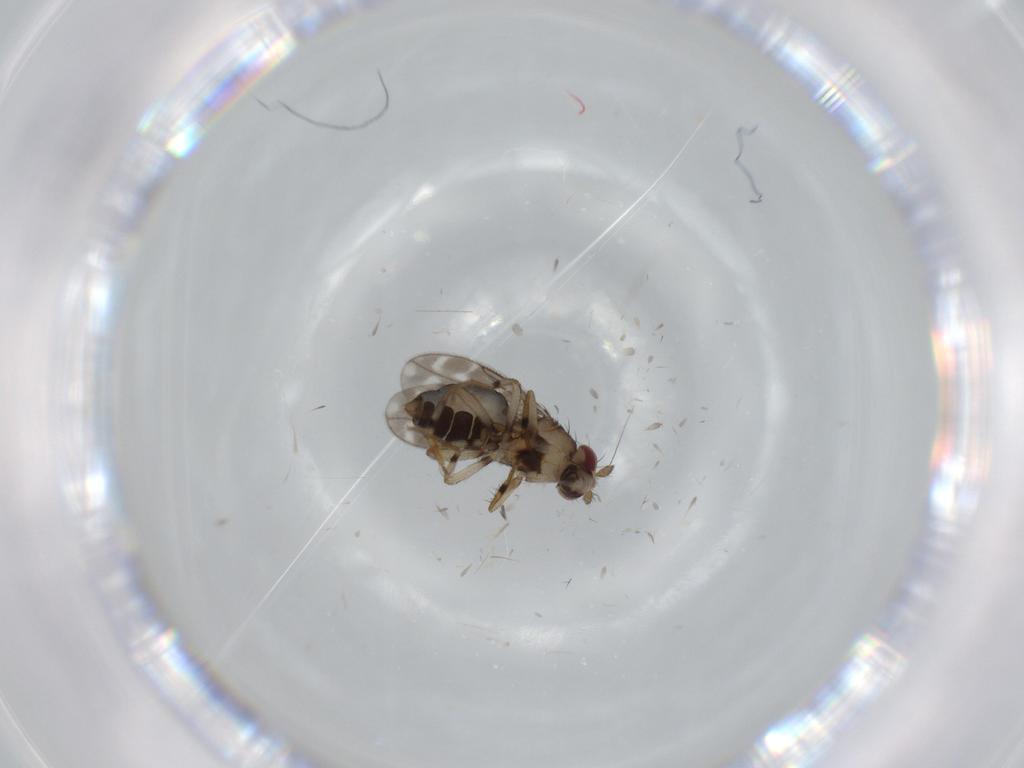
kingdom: Animalia
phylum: Arthropoda
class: Insecta
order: Diptera
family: Sphaeroceridae
